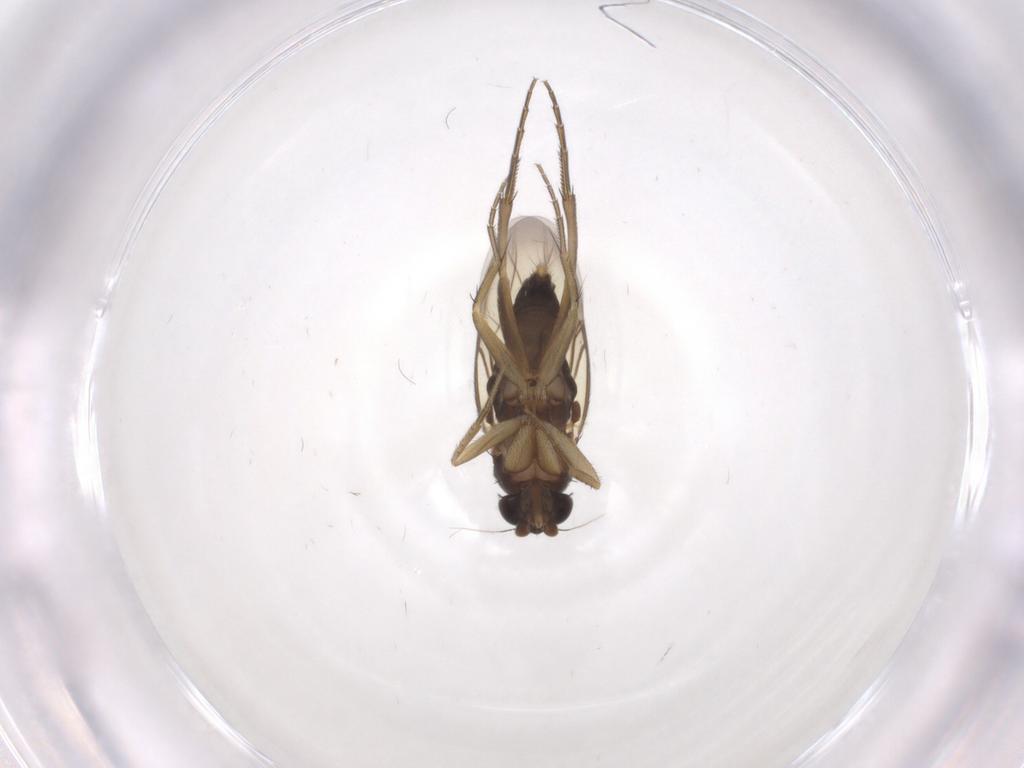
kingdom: Animalia
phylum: Arthropoda
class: Insecta
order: Diptera
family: Phoridae
